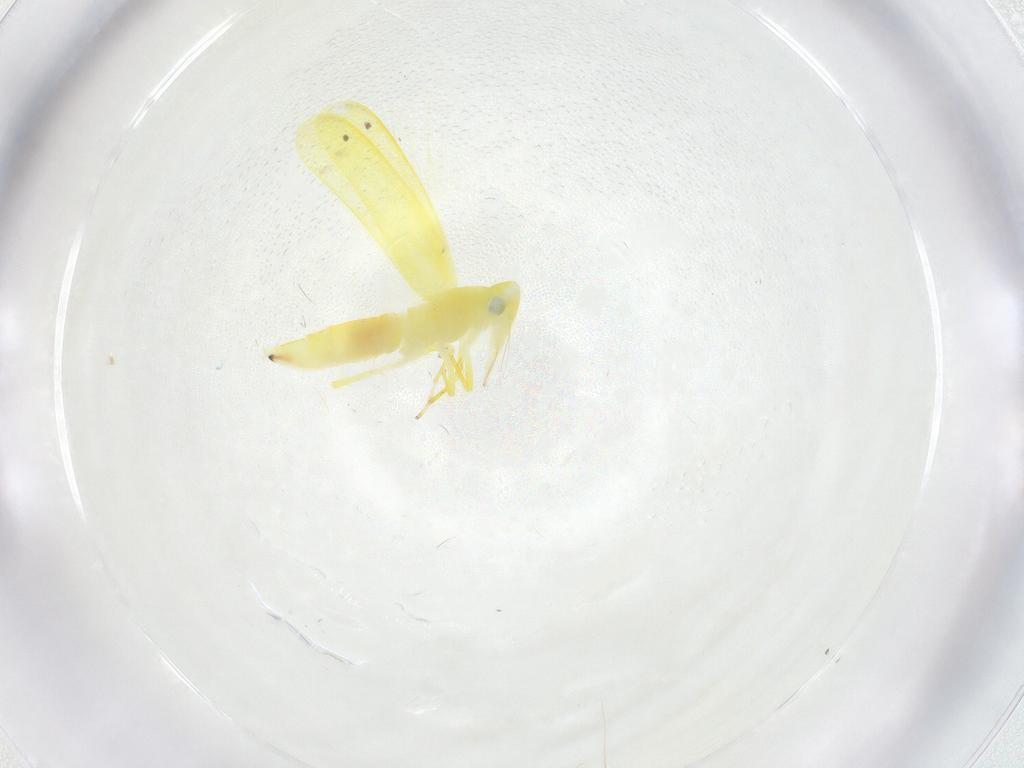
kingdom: Animalia
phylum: Arthropoda
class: Insecta
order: Hemiptera
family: Cicadellidae
